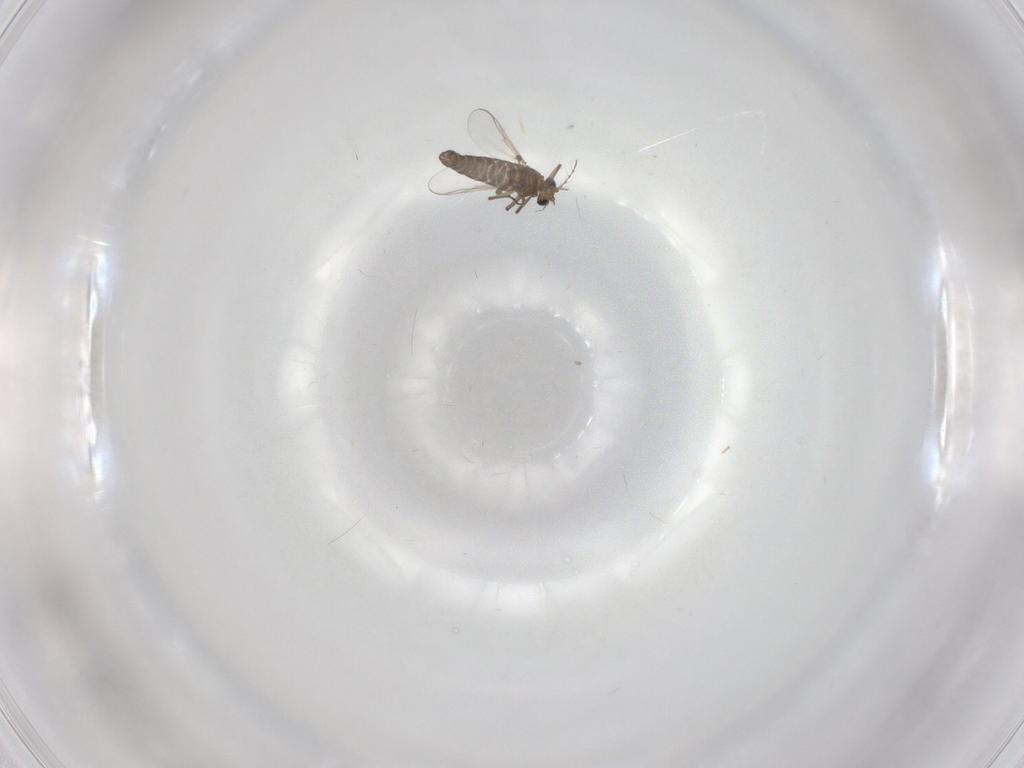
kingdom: Animalia
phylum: Arthropoda
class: Insecta
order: Diptera
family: Chironomidae
